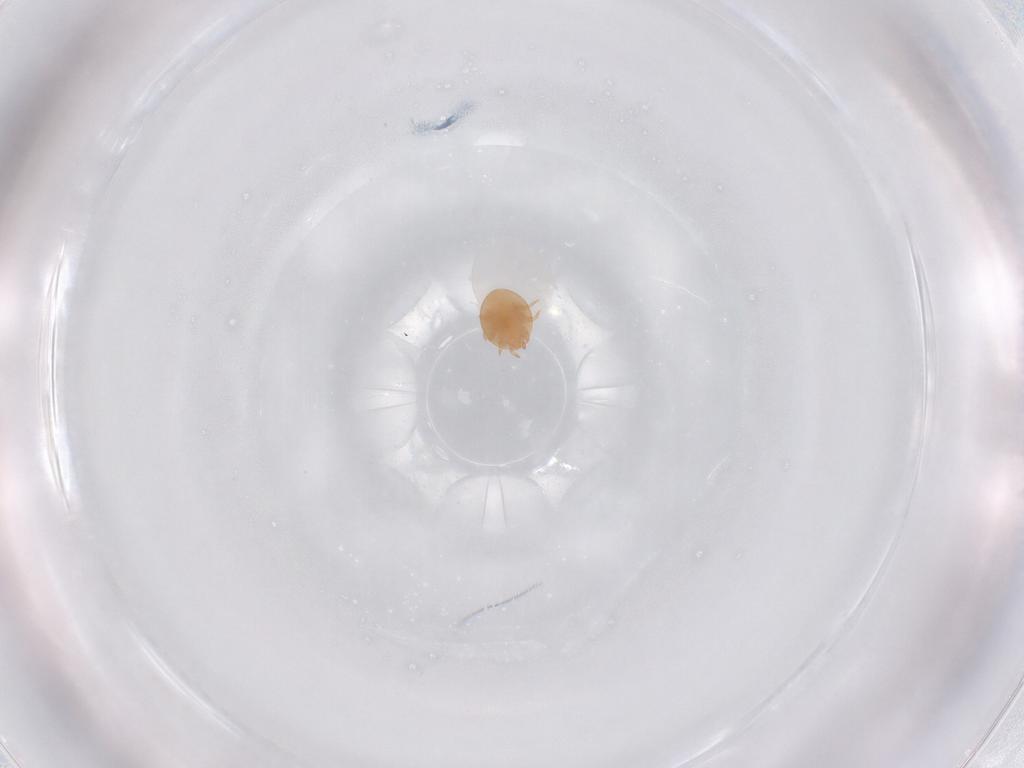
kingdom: Animalia
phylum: Arthropoda
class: Arachnida
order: Mesostigmata
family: Trematuridae
